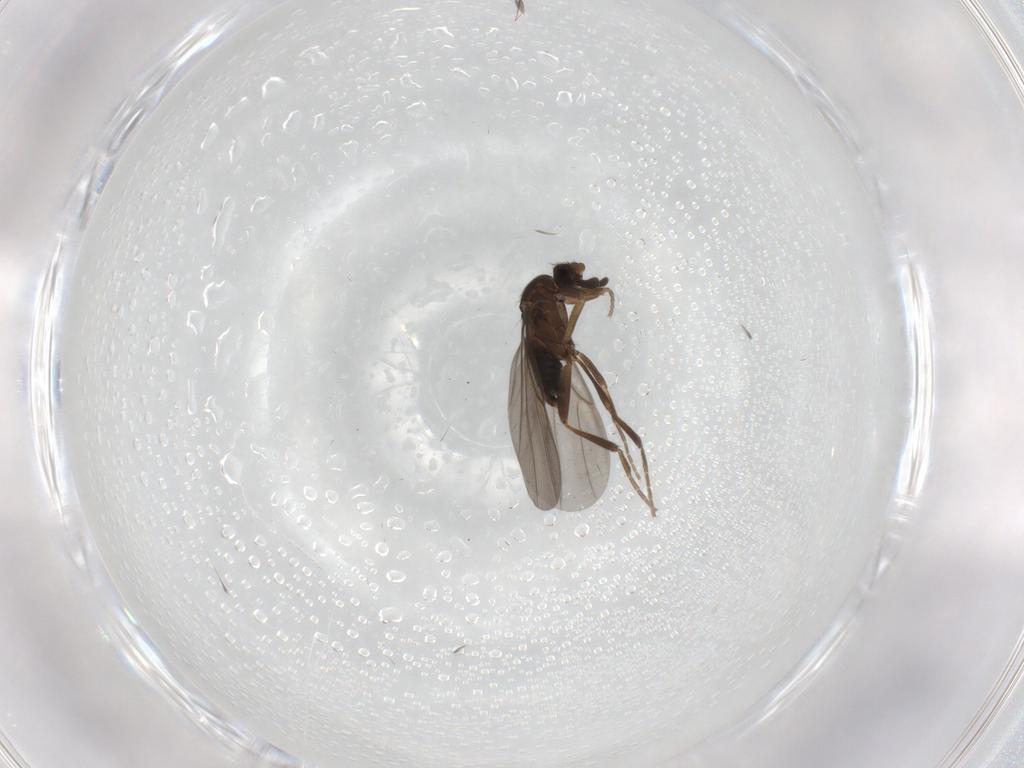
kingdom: Animalia
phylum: Arthropoda
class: Insecta
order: Diptera
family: Phoridae
